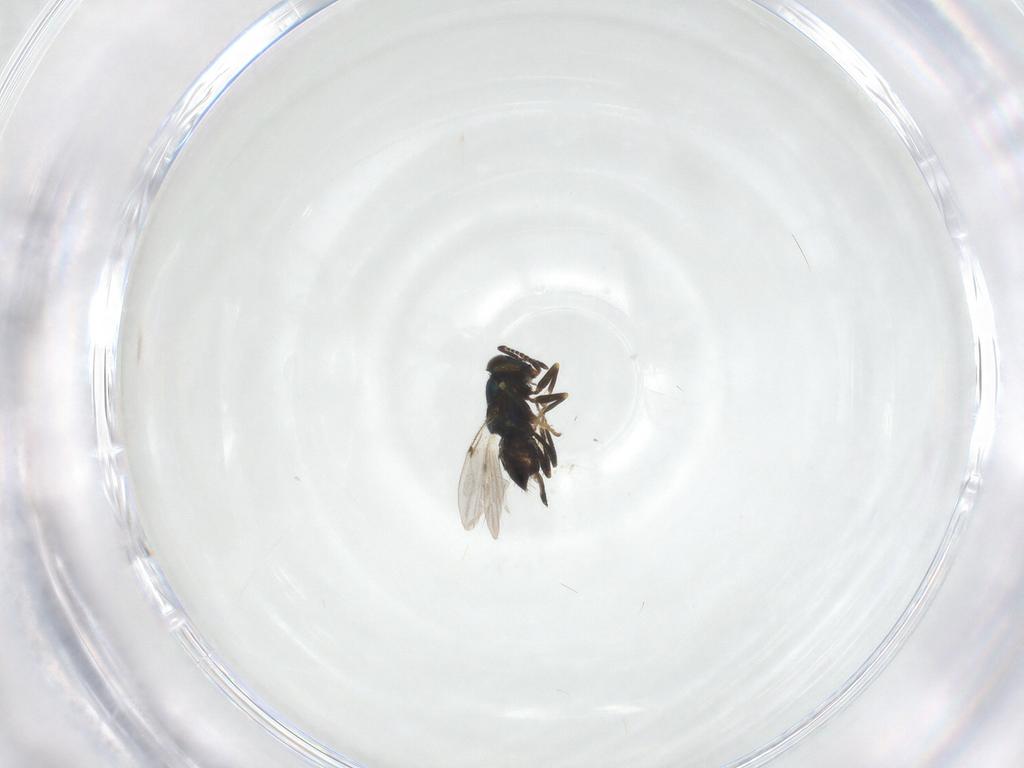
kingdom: Animalia
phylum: Arthropoda
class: Insecta
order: Hymenoptera
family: Encyrtidae
